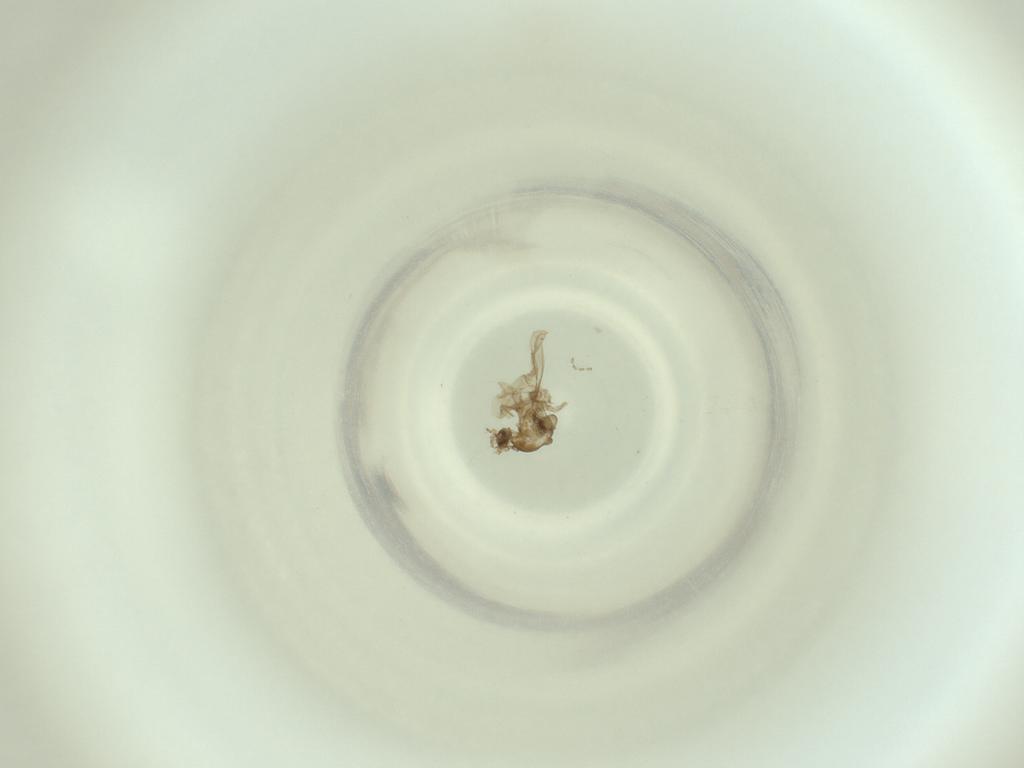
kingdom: Animalia
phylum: Arthropoda
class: Insecta
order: Diptera
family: Cecidomyiidae
